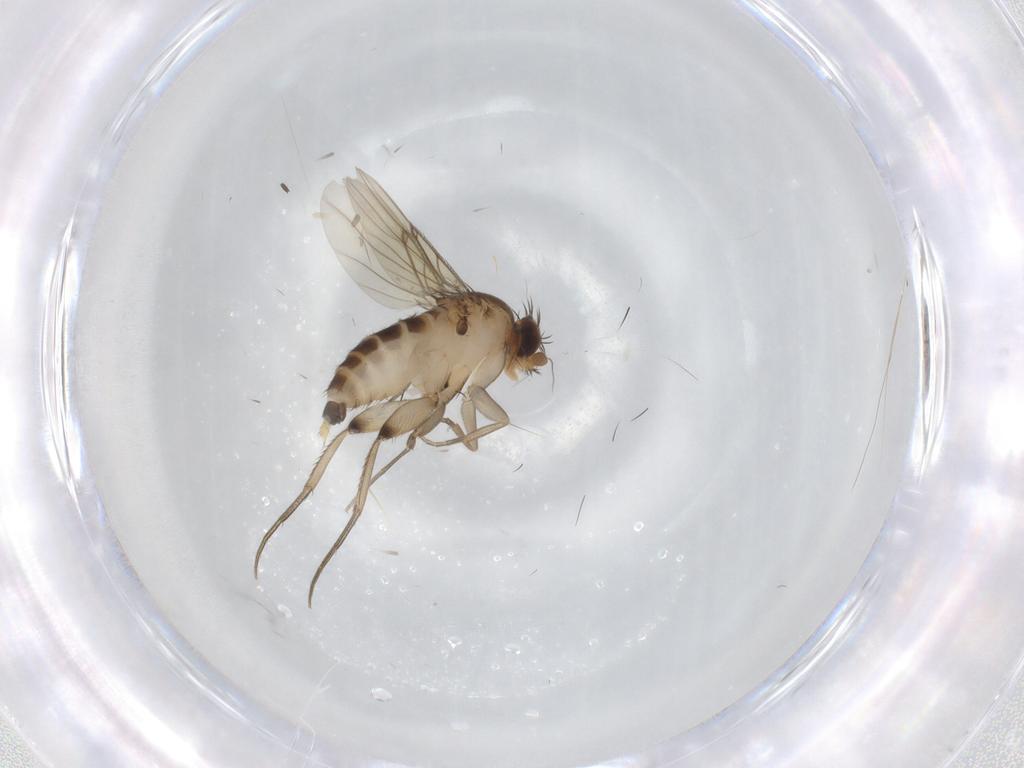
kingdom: Animalia
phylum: Arthropoda
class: Insecta
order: Diptera
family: Phoridae
